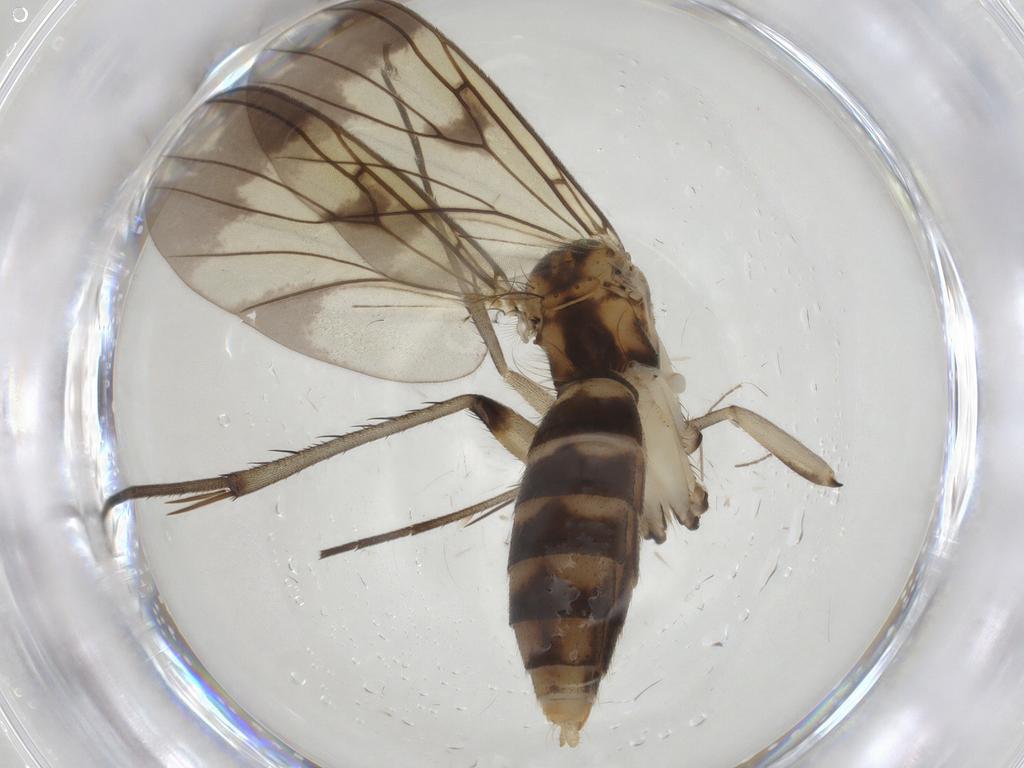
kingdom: Animalia
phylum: Arthropoda
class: Insecta
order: Diptera
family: Mycetophilidae
